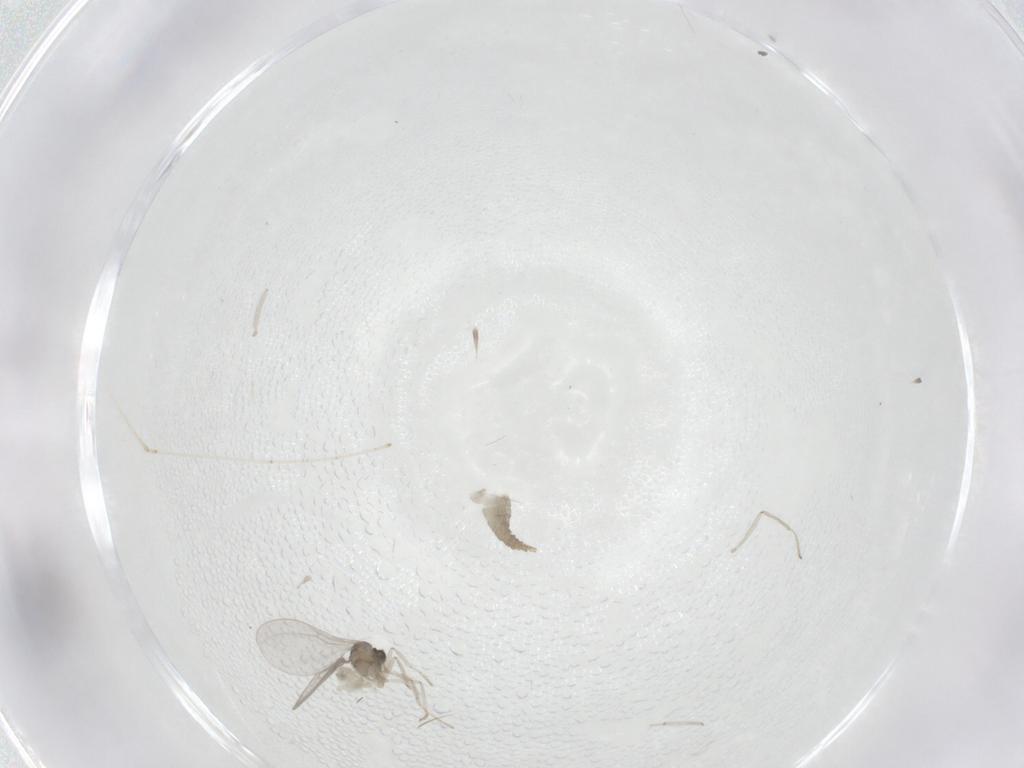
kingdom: Animalia
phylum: Arthropoda
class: Insecta
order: Diptera
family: Cecidomyiidae
